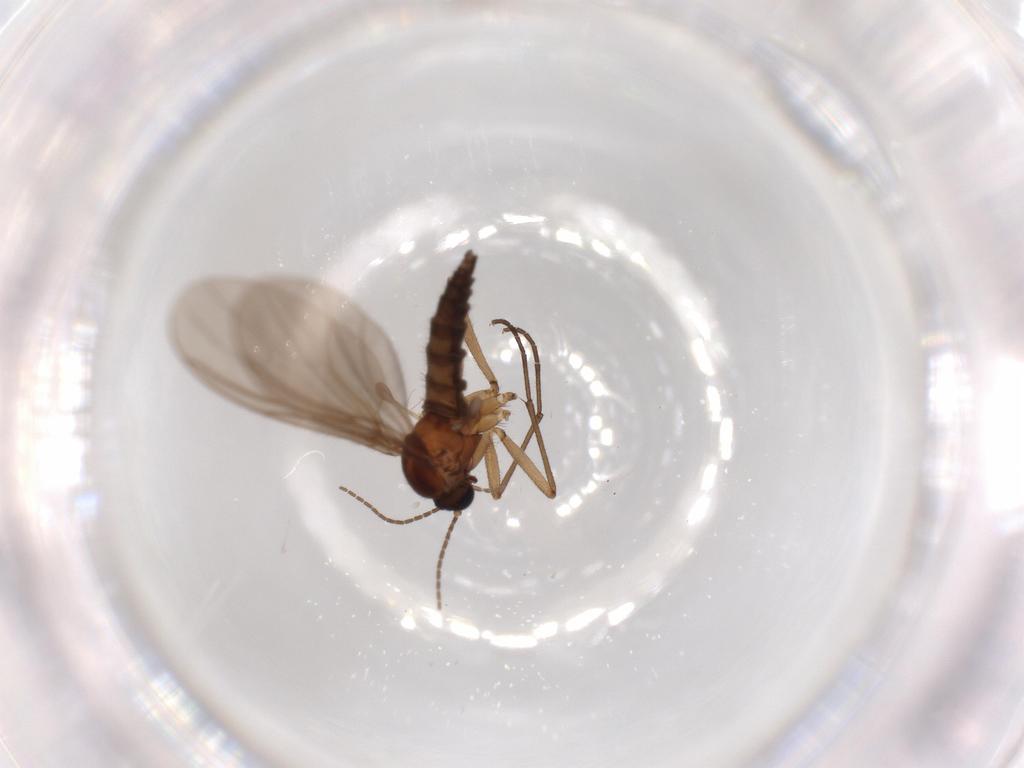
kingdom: Animalia
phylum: Arthropoda
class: Insecta
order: Diptera
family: Sciaridae
